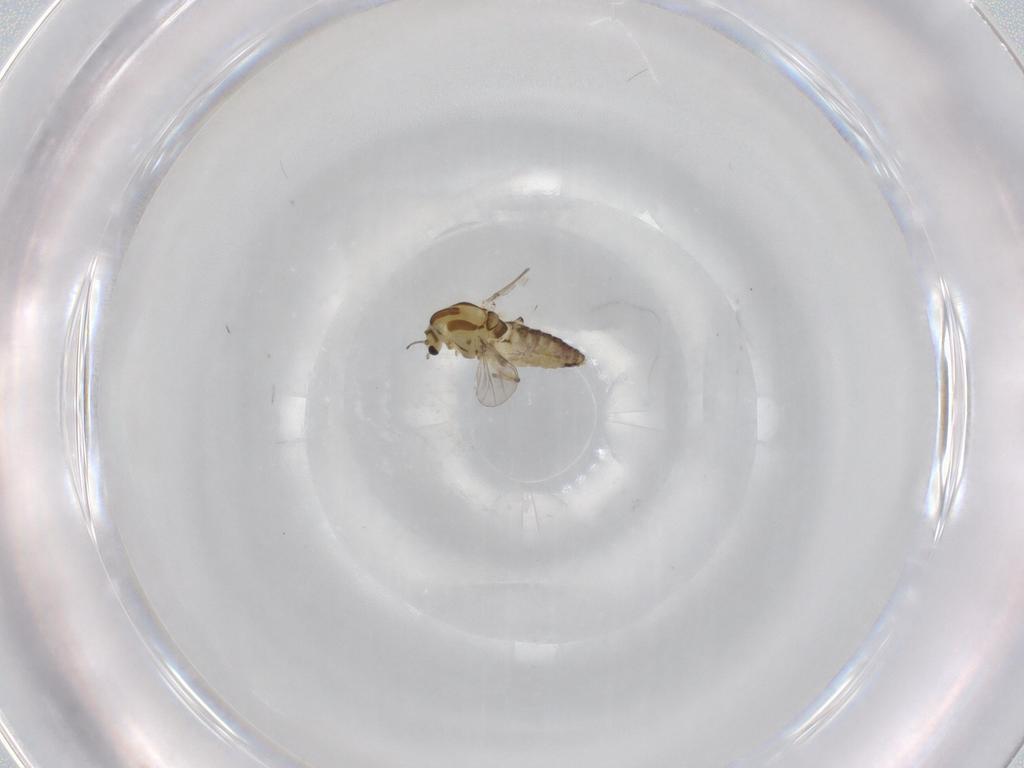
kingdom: Animalia
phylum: Arthropoda
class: Insecta
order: Diptera
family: Chironomidae
